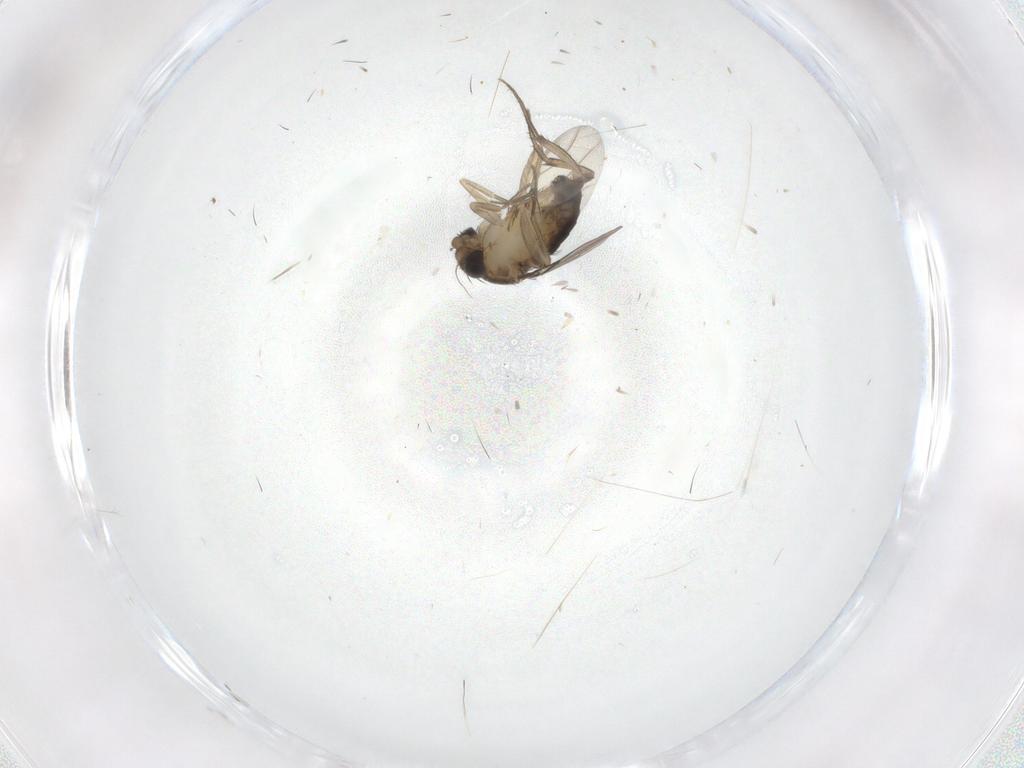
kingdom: Animalia
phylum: Arthropoda
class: Insecta
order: Diptera
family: Phoridae
